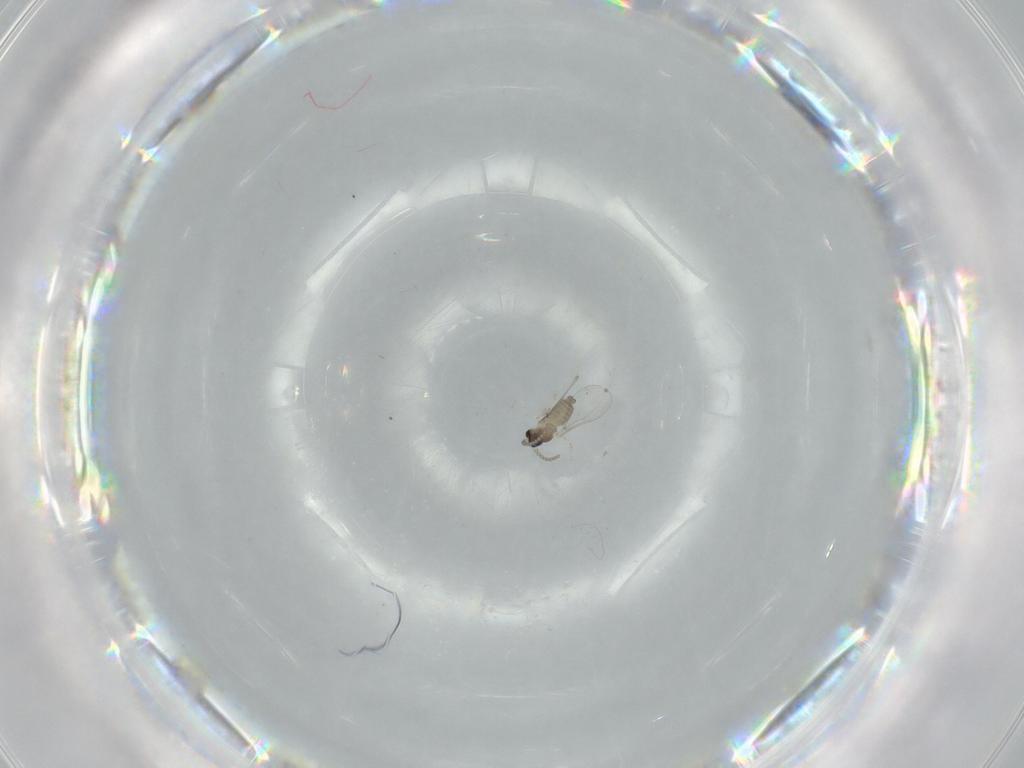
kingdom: Animalia
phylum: Arthropoda
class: Insecta
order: Diptera
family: Cecidomyiidae
